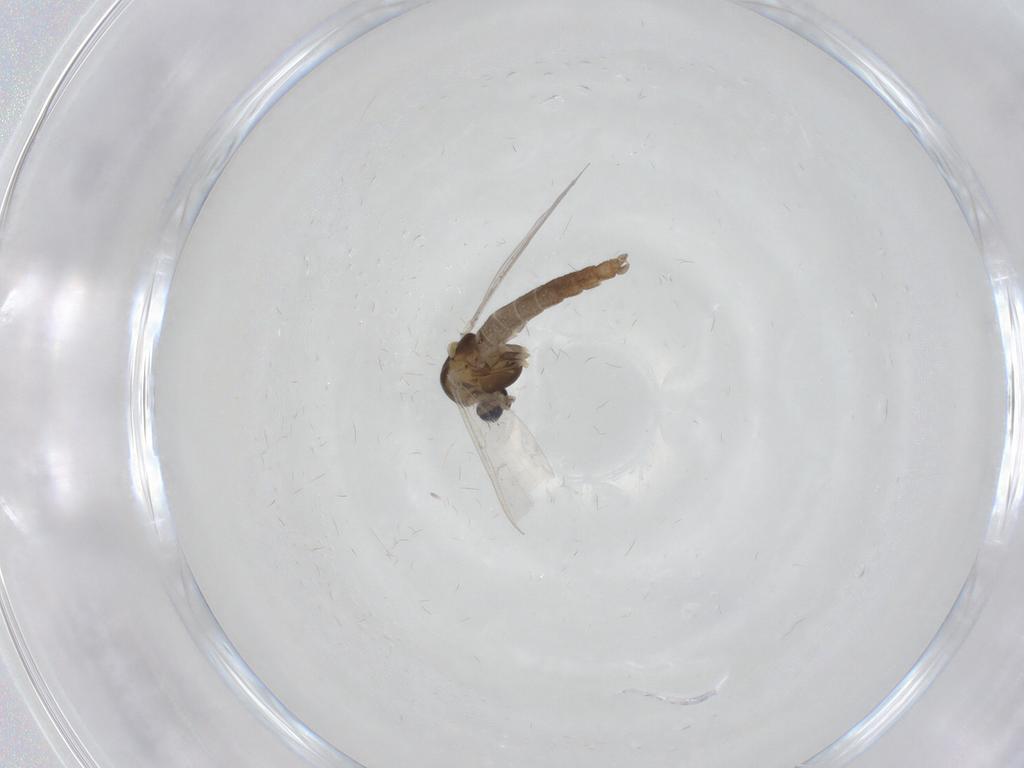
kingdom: Animalia
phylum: Arthropoda
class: Insecta
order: Diptera
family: Chironomidae
